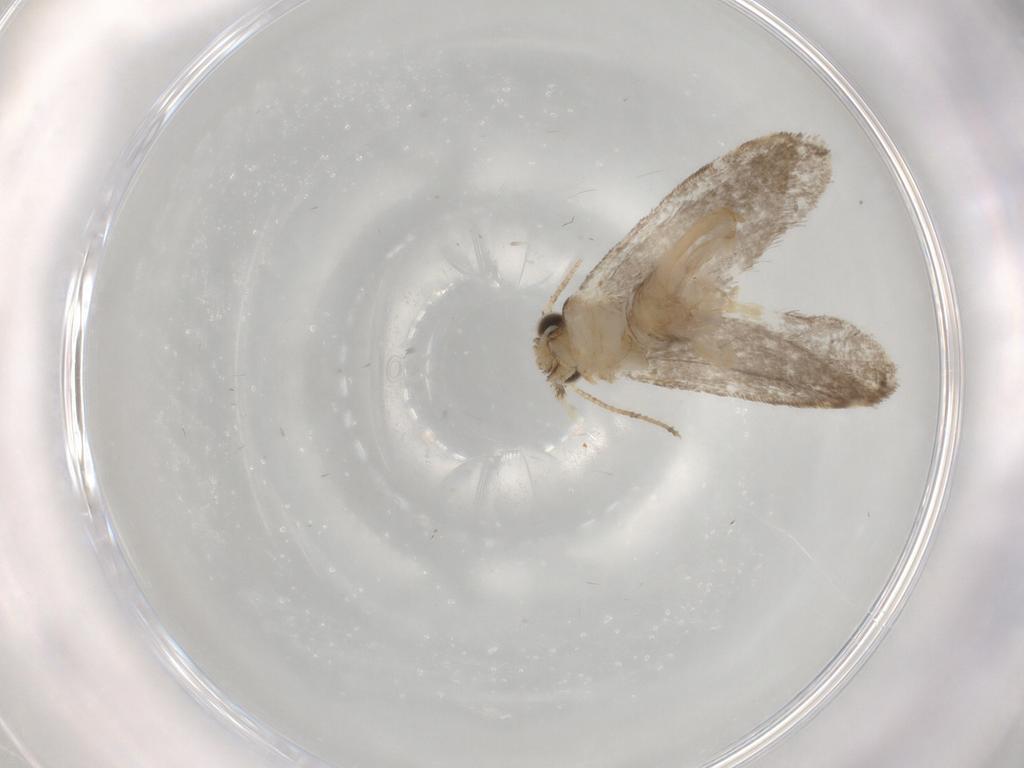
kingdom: Animalia
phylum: Arthropoda
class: Insecta
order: Lepidoptera
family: Tineidae
